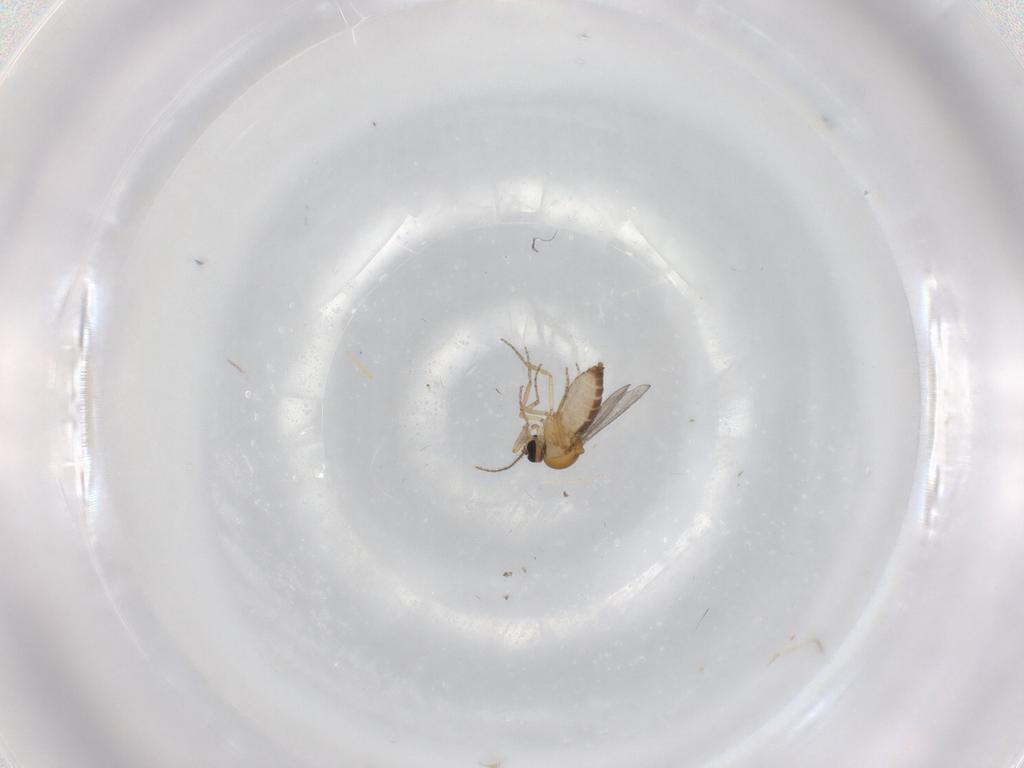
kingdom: Animalia
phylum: Arthropoda
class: Insecta
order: Diptera
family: Ceratopogonidae
